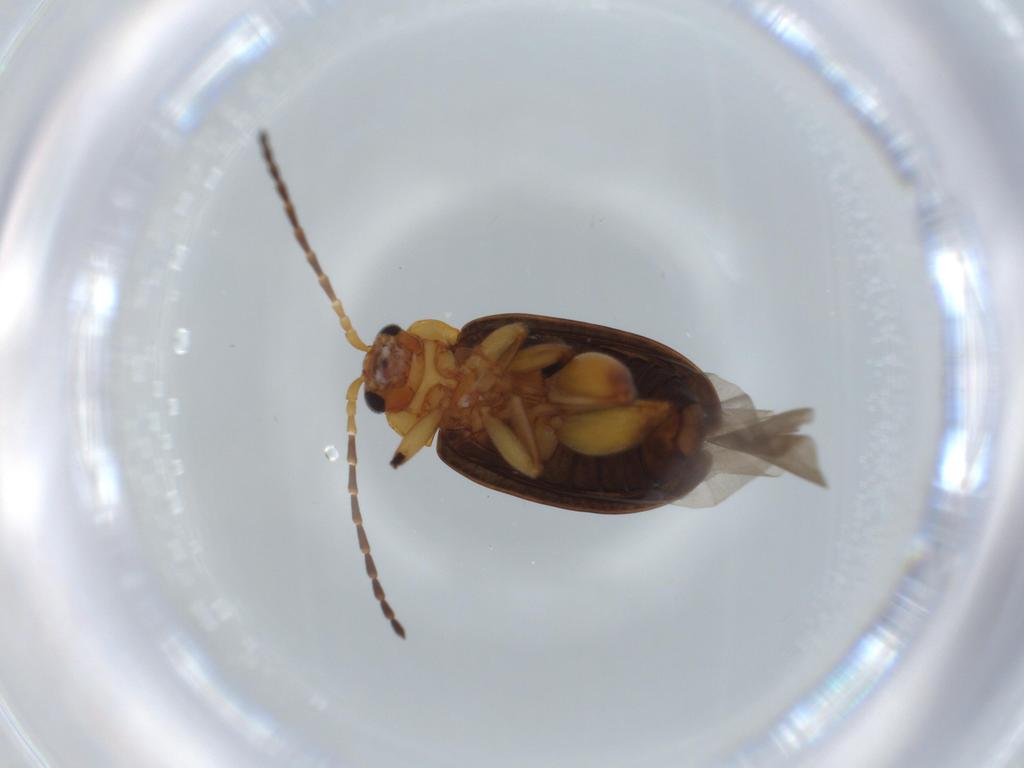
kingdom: Animalia
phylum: Arthropoda
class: Insecta
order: Coleoptera
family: Chrysomelidae
